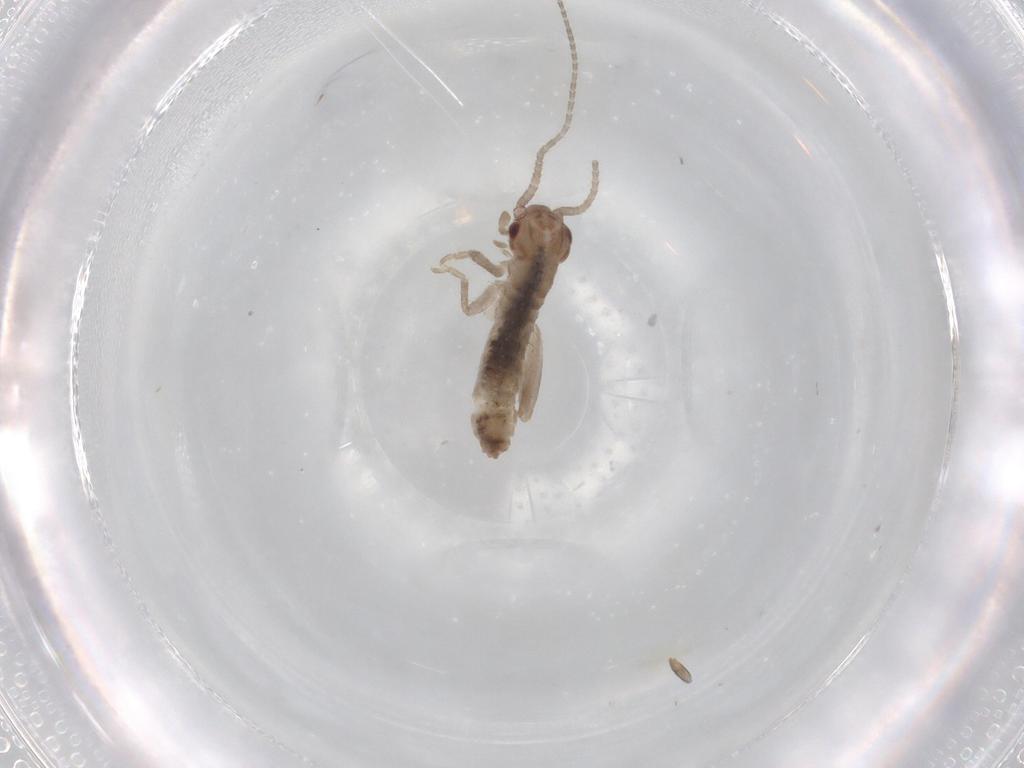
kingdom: Animalia
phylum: Arthropoda
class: Insecta
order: Orthoptera
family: Mogoplistidae
